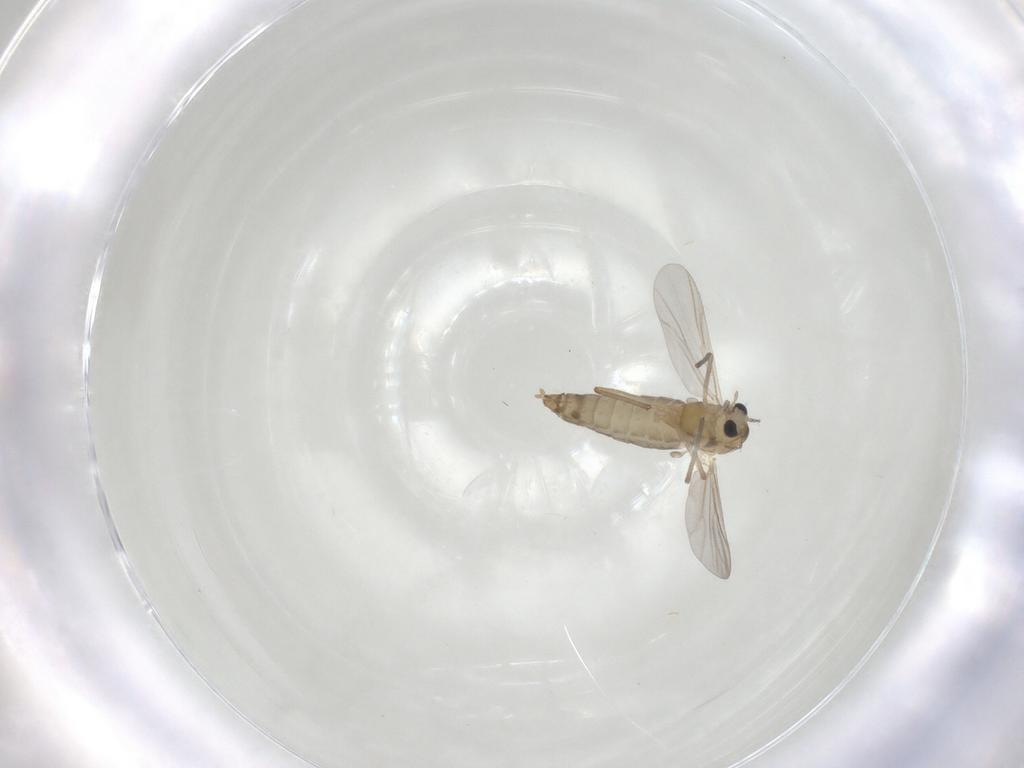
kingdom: Animalia
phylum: Arthropoda
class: Insecta
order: Diptera
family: Chironomidae
